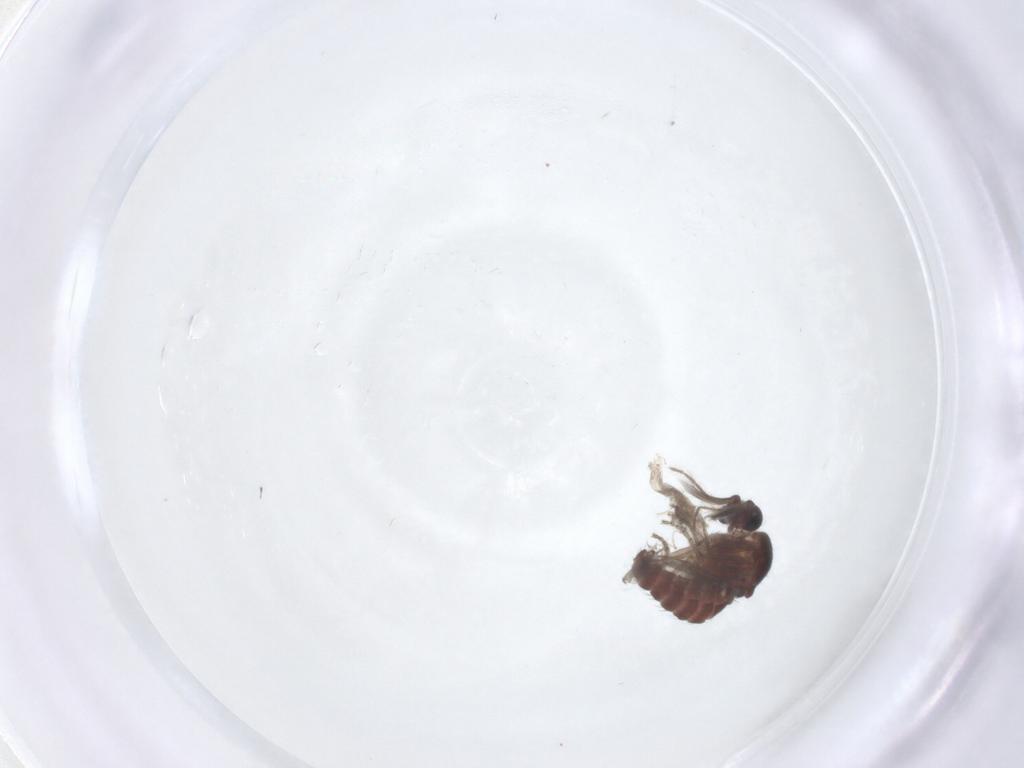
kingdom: Animalia
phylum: Arthropoda
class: Insecta
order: Diptera
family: Ceratopogonidae
